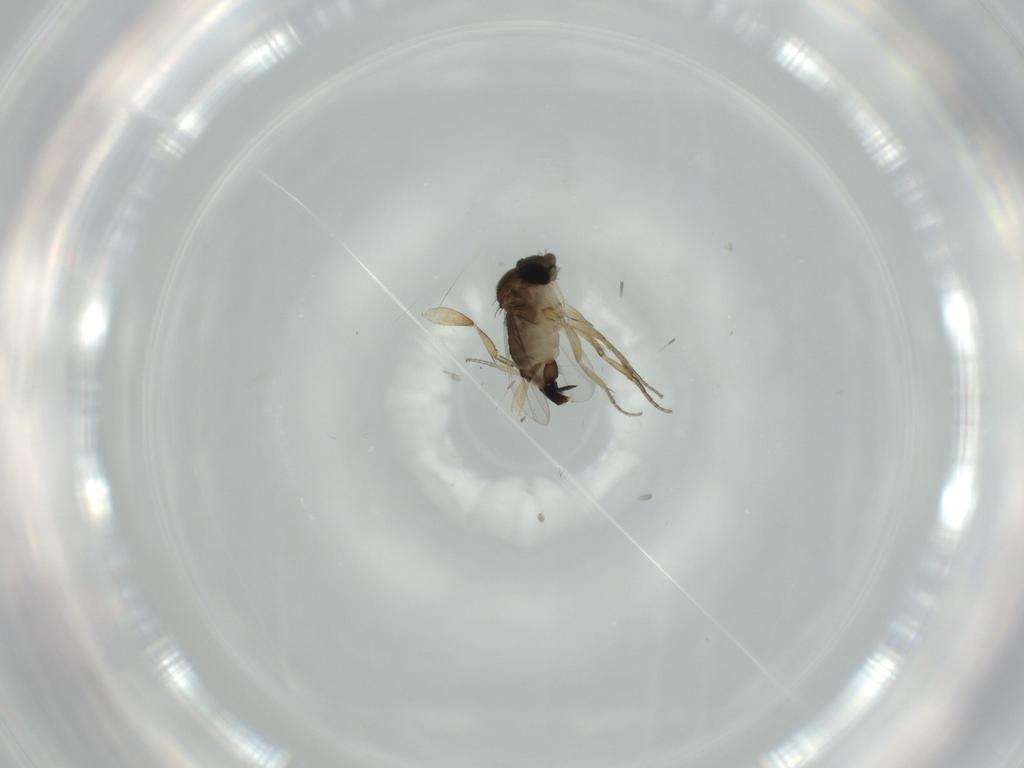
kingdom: Animalia
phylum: Arthropoda
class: Insecta
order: Diptera
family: Phoridae
